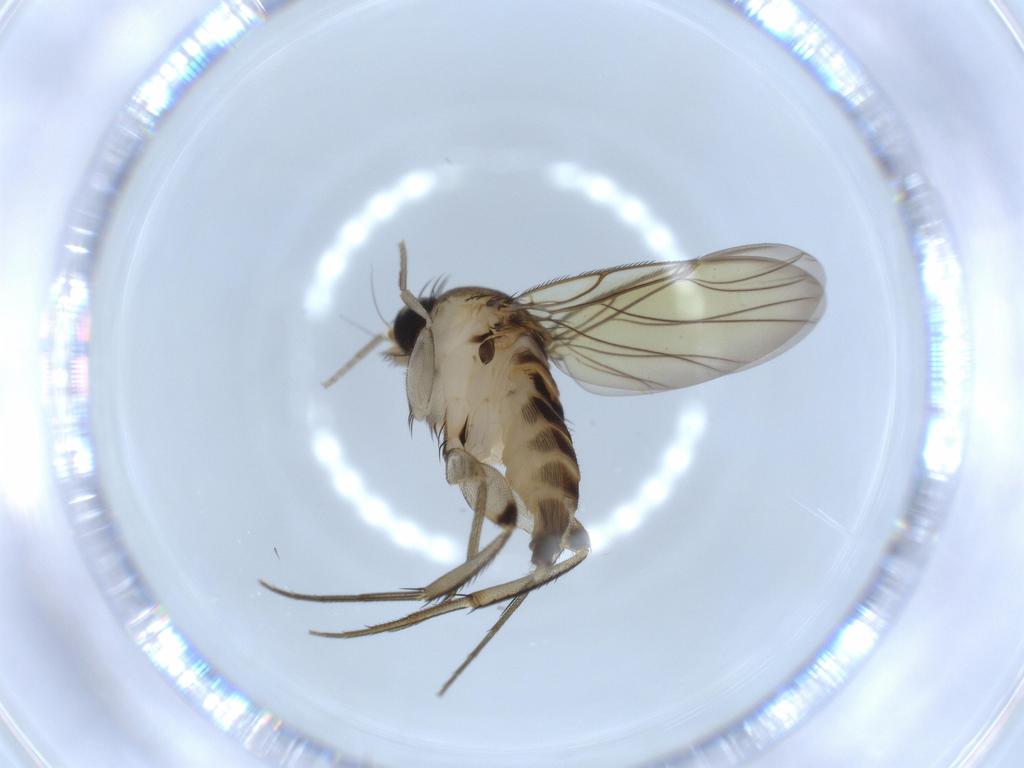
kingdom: Animalia
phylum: Arthropoda
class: Insecta
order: Diptera
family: Phoridae
